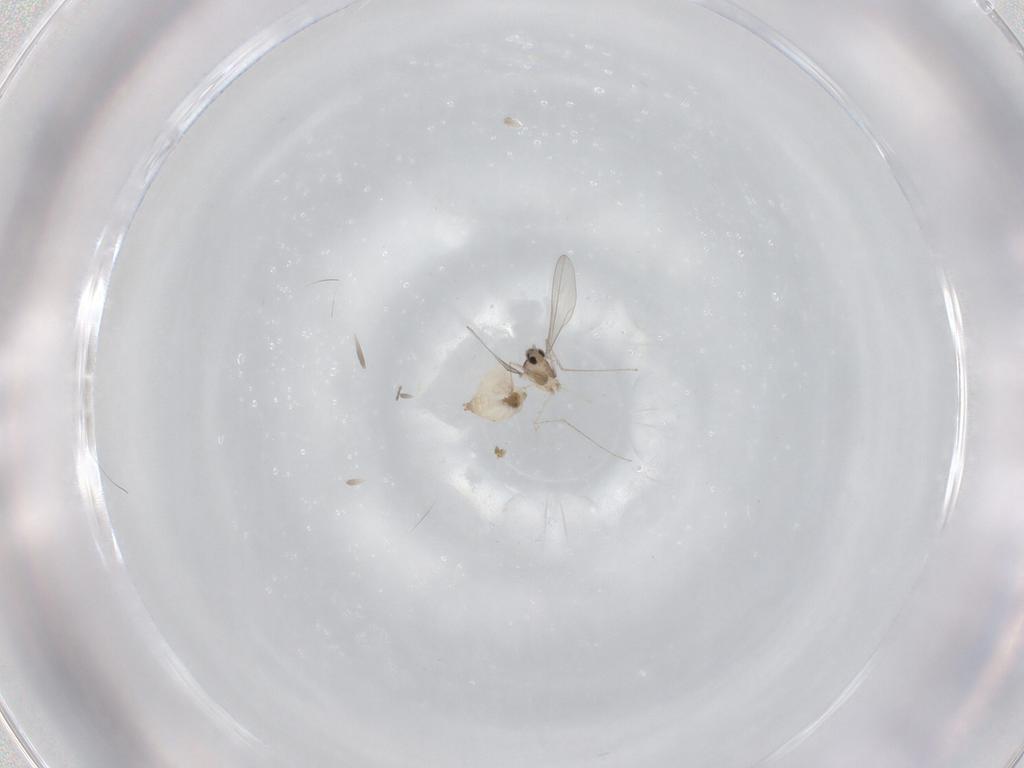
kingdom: Animalia
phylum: Arthropoda
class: Insecta
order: Diptera
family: Cecidomyiidae
